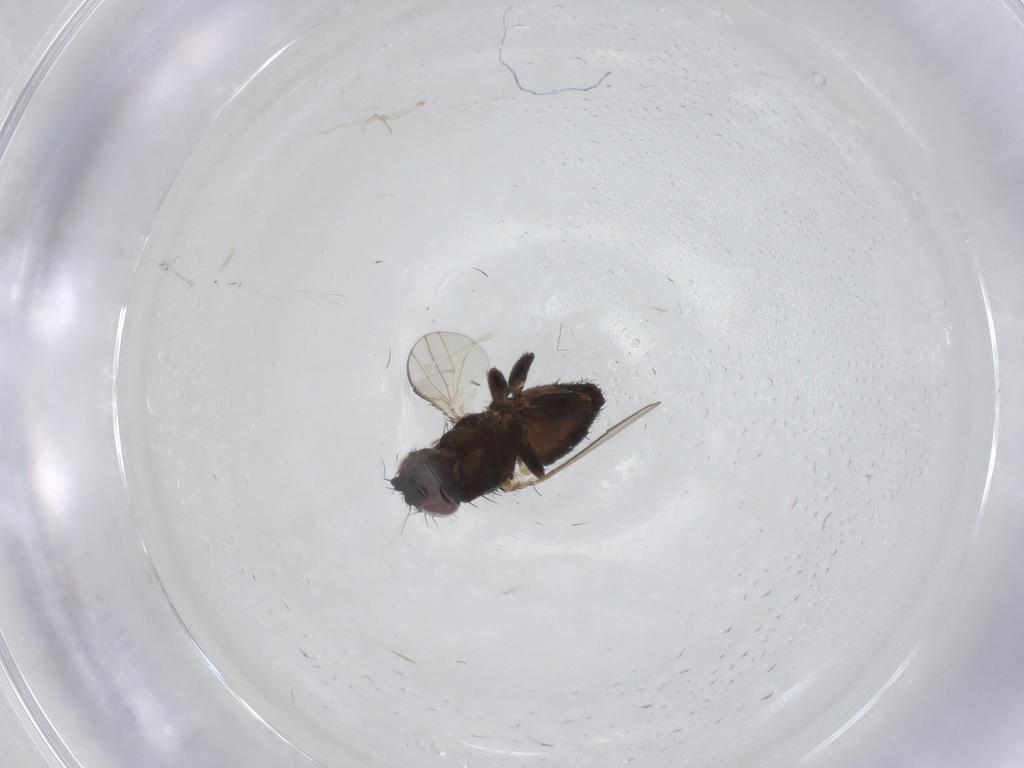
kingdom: Animalia
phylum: Arthropoda
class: Insecta
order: Diptera
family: Milichiidae
